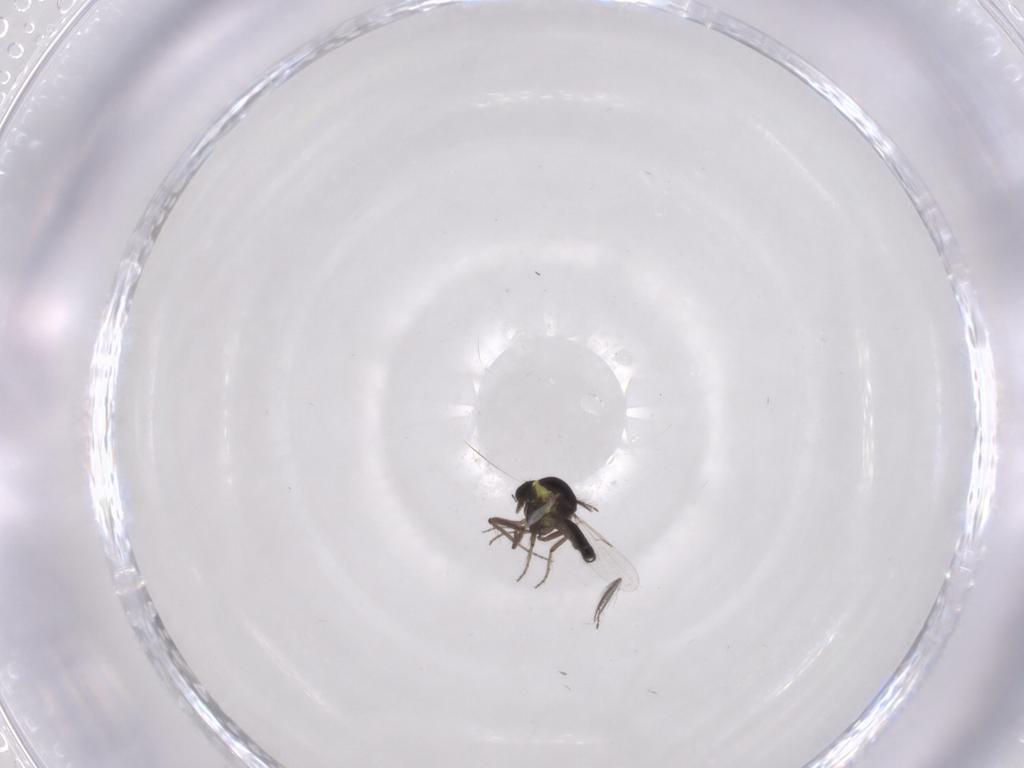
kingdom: Animalia
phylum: Arthropoda
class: Insecta
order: Diptera
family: Ceratopogonidae
